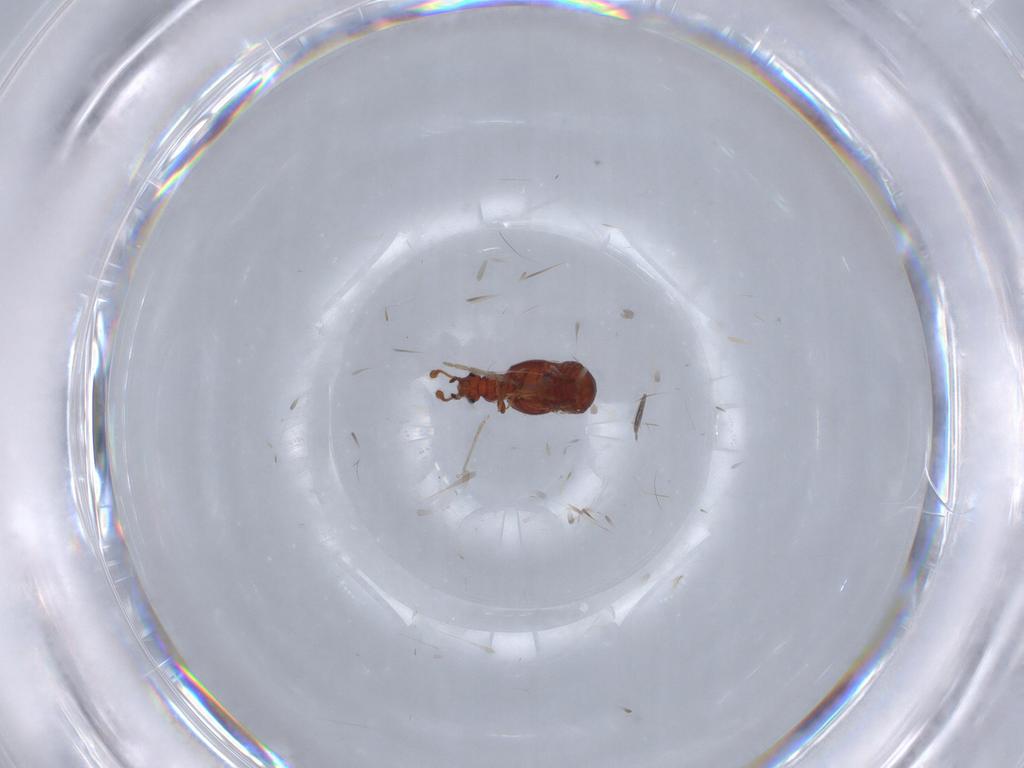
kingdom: Animalia
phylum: Arthropoda
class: Insecta
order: Coleoptera
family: Staphylinidae
